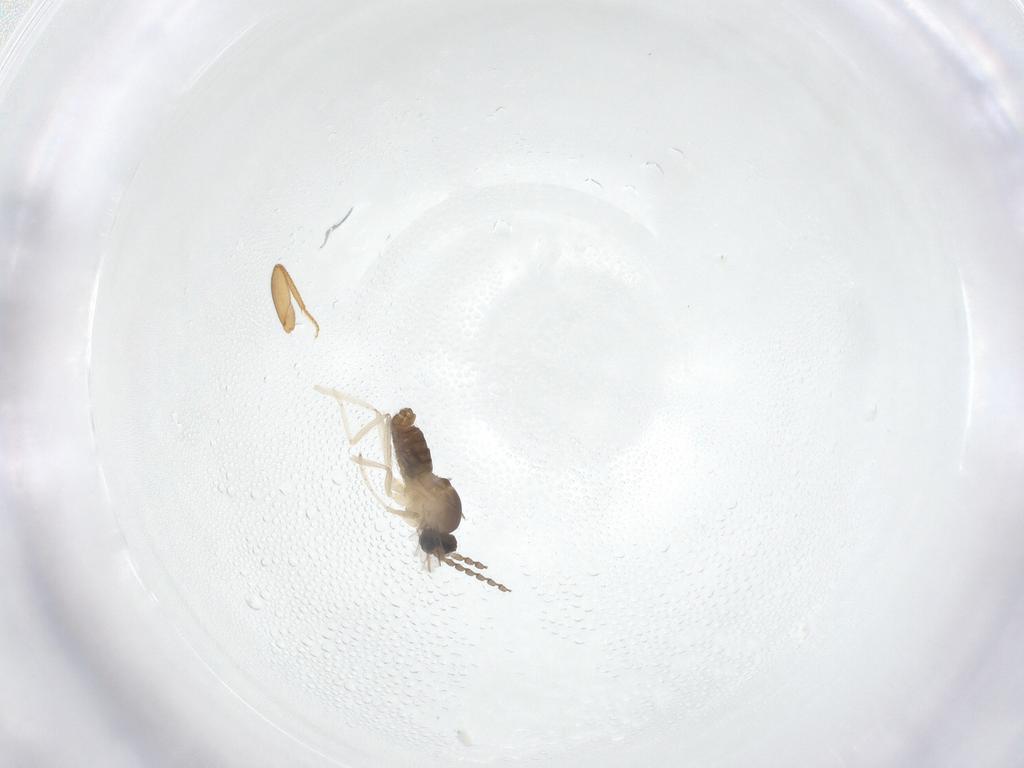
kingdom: Animalia
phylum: Arthropoda
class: Insecta
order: Diptera
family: Cecidomyiidae
